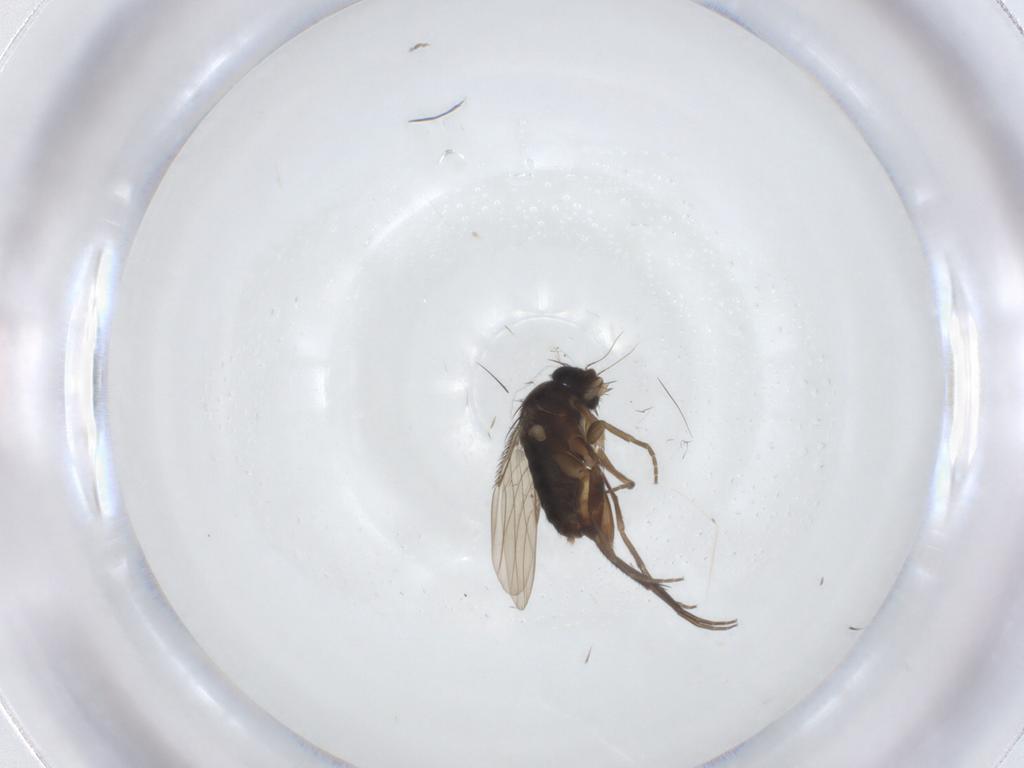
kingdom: Animalia
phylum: Arthropoda
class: Insecta
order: Diptera
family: Phoridae
